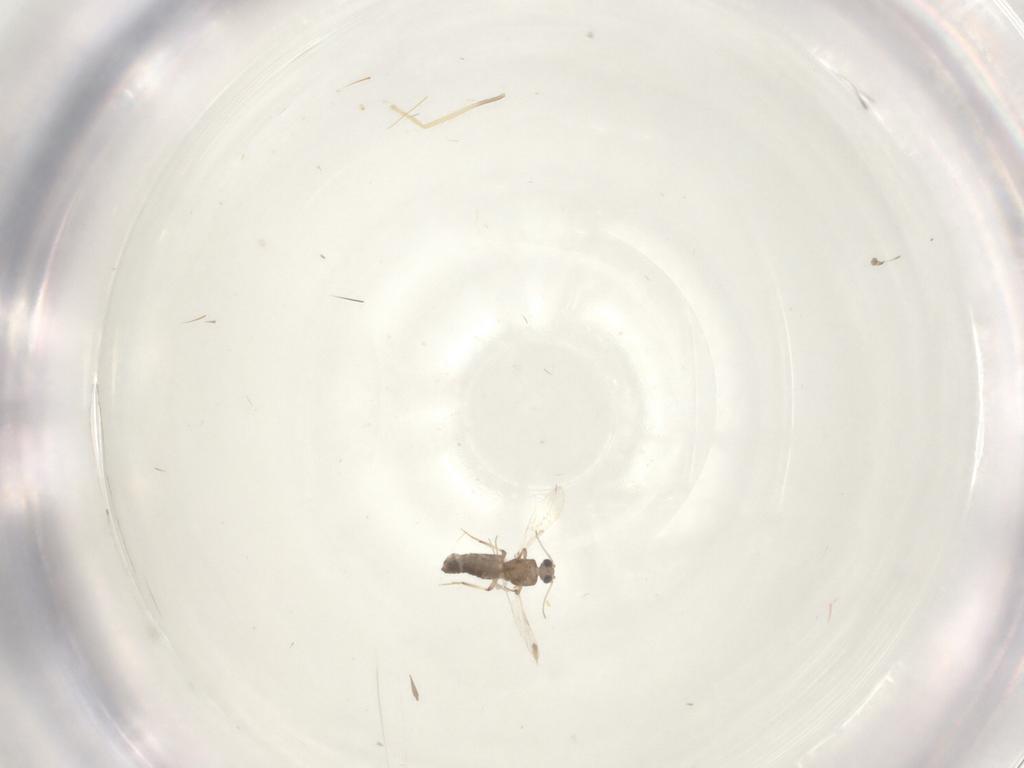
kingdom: Animalia
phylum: Arthropoda
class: Insecta
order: Diptera
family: Ceratopogonidae
